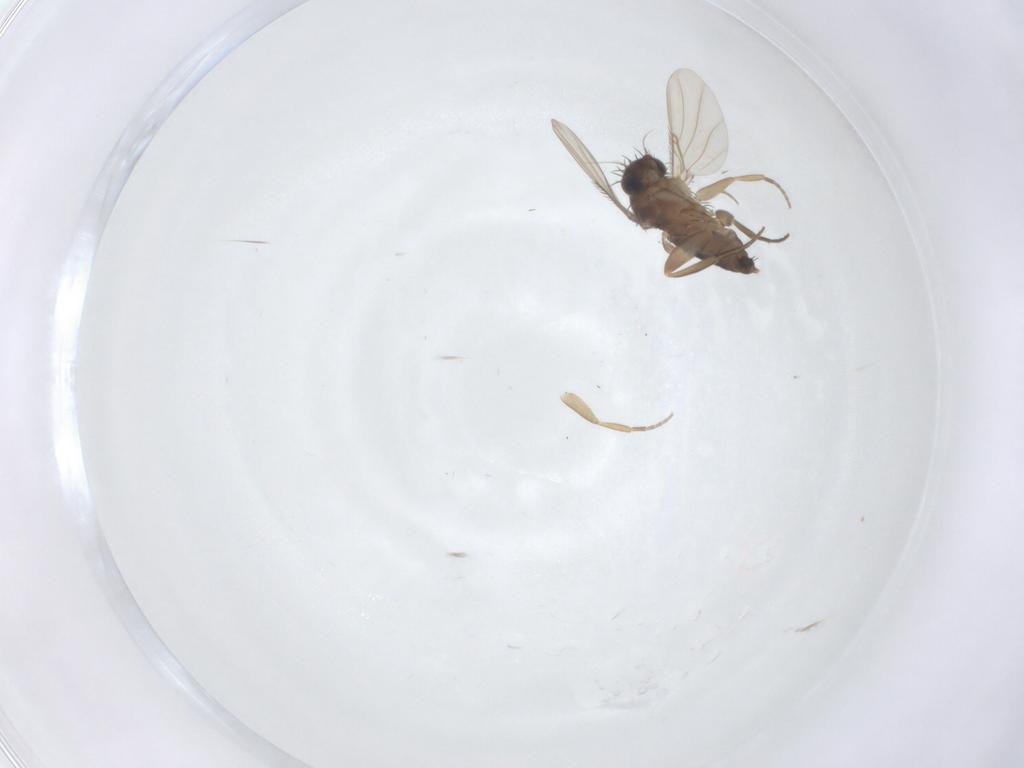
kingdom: Animalia
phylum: Arthropoda
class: Insecta
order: Diptera
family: Phoridae
